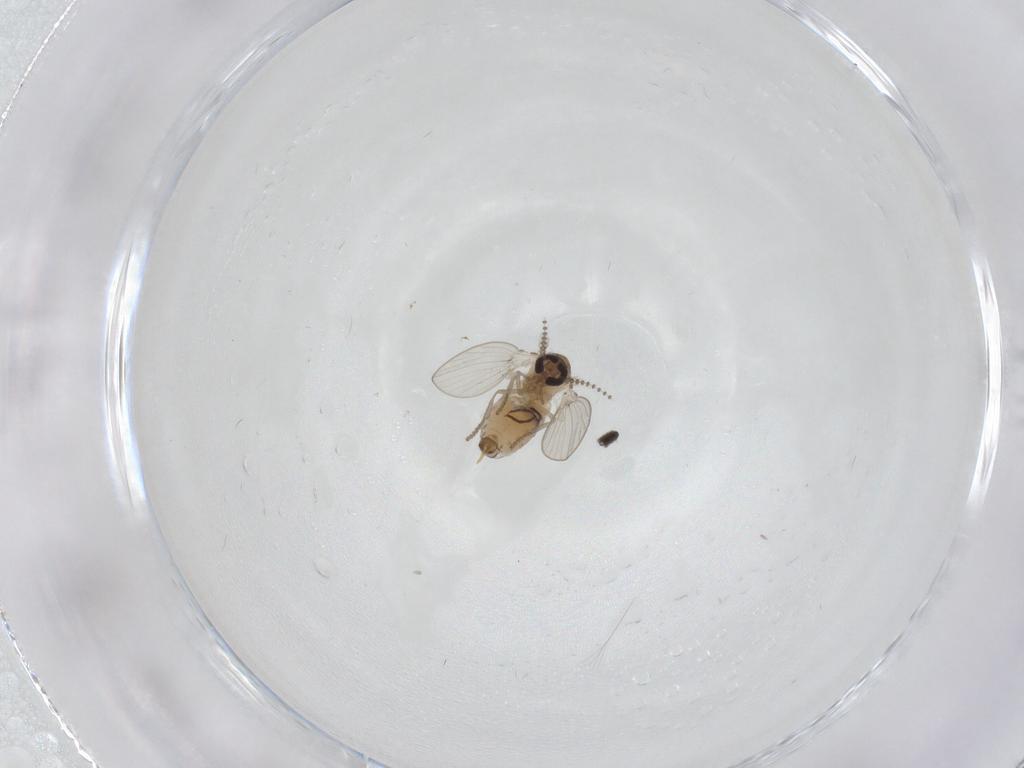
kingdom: Animalia
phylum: Arthropoda
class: Insecta
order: Diptera
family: Psychodidae
